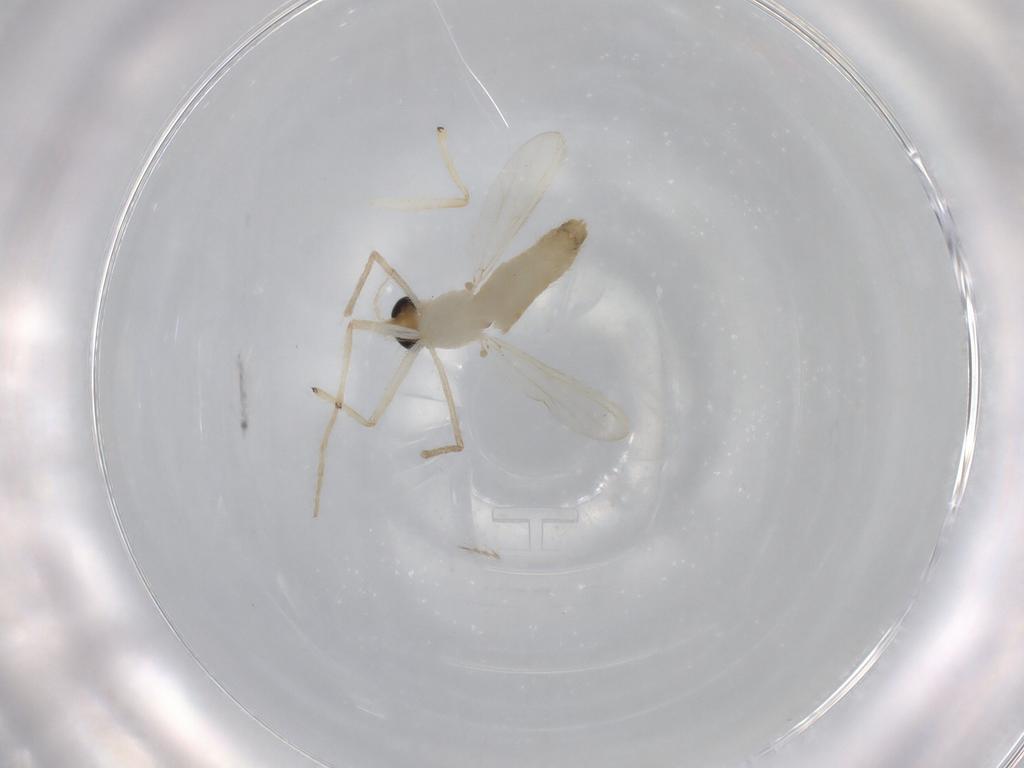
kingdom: Animalia
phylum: Arthropoda
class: Insecta
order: Diptera
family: Chironomidae
